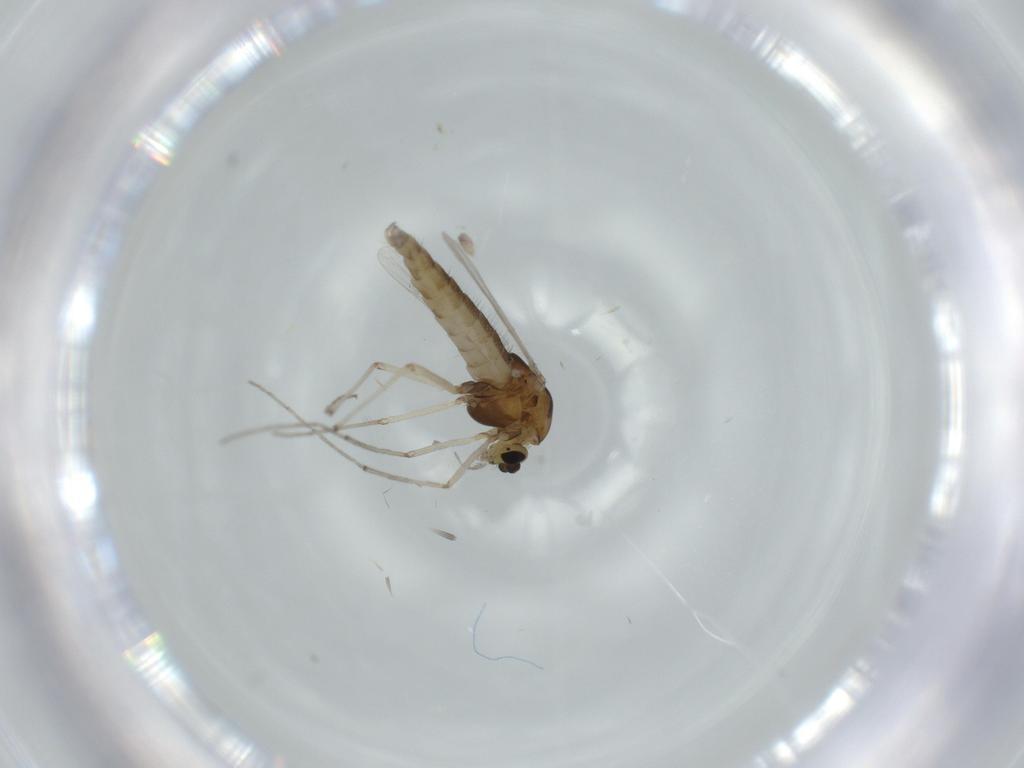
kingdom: Animalia
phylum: Arthropoda
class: Insecta
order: Diptera
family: Chironomidae
